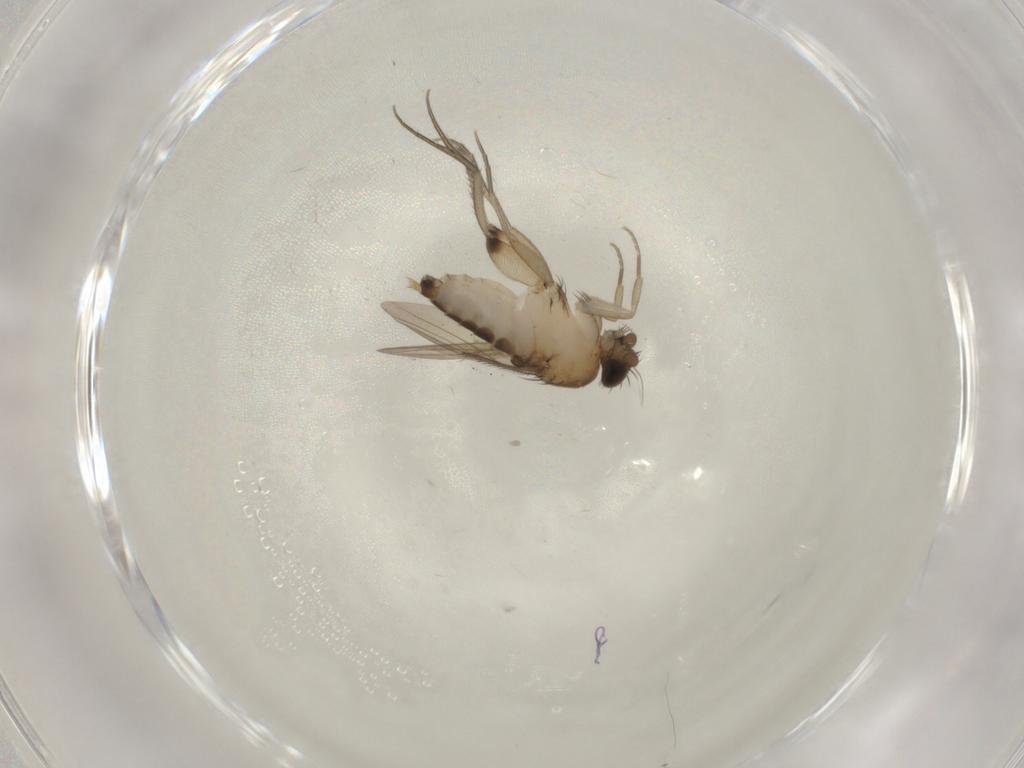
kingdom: Animalia
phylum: Arthropoda
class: Insecta
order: Diptera
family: Phoridae
